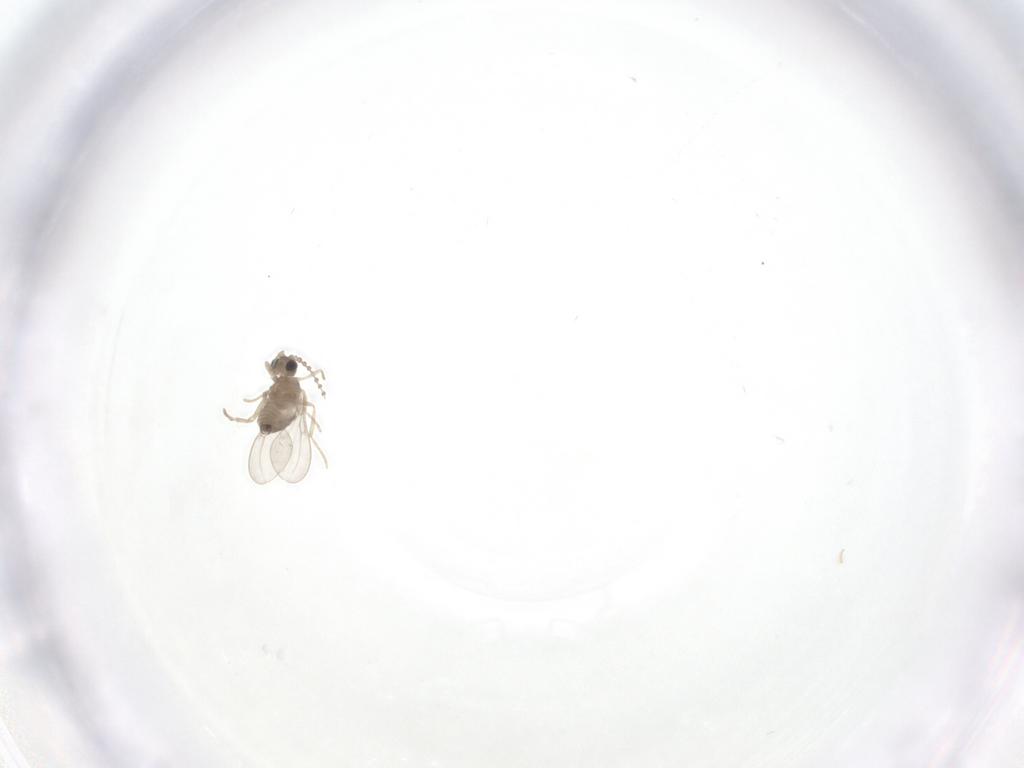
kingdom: Animalia
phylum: Arthropoda
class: Insecta
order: Diptera
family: Cecidomyiidae
